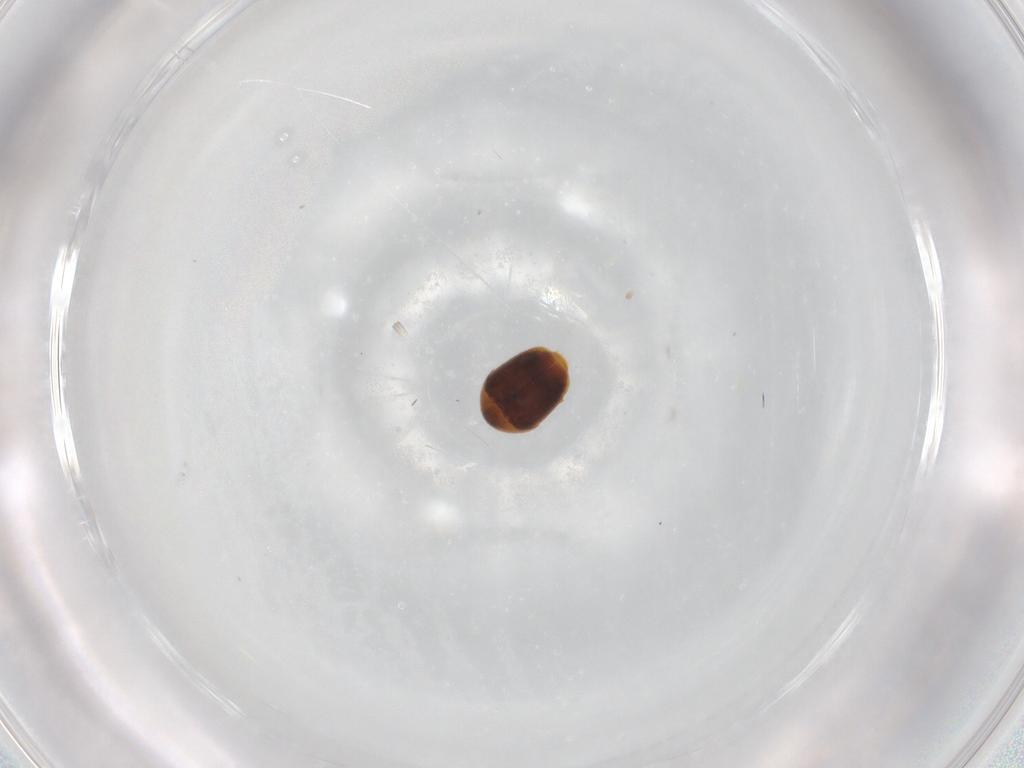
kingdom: Animalia
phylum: Arthropoda
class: Insecta
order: Coleoptera
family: Corylophidae
